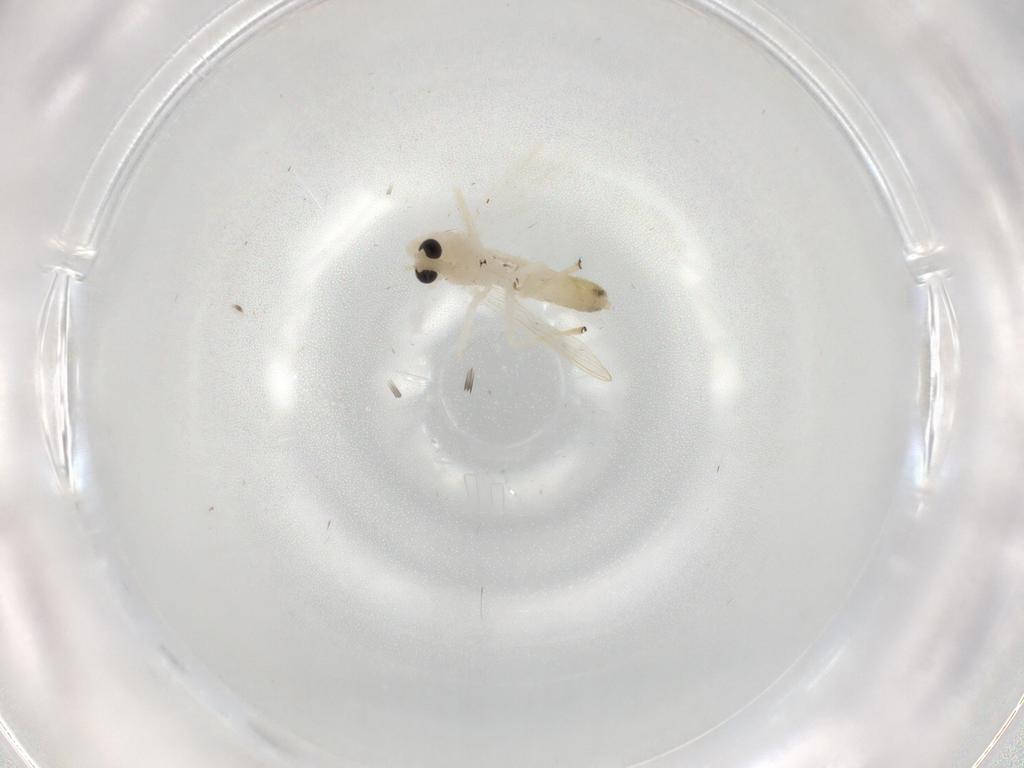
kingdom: Animalia
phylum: Arthropoda
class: Insecta
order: Diptera
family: Chironomidae
